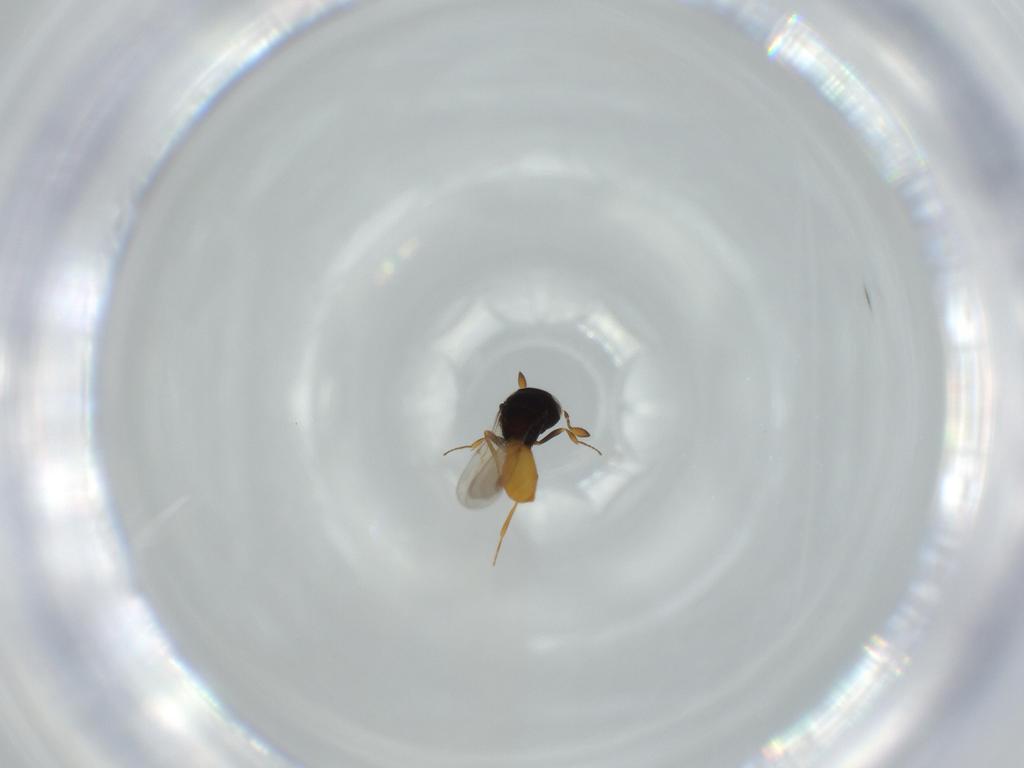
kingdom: Animalia
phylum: Arthropoda
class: Insecta
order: Hymenoptera
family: Scelionidae
